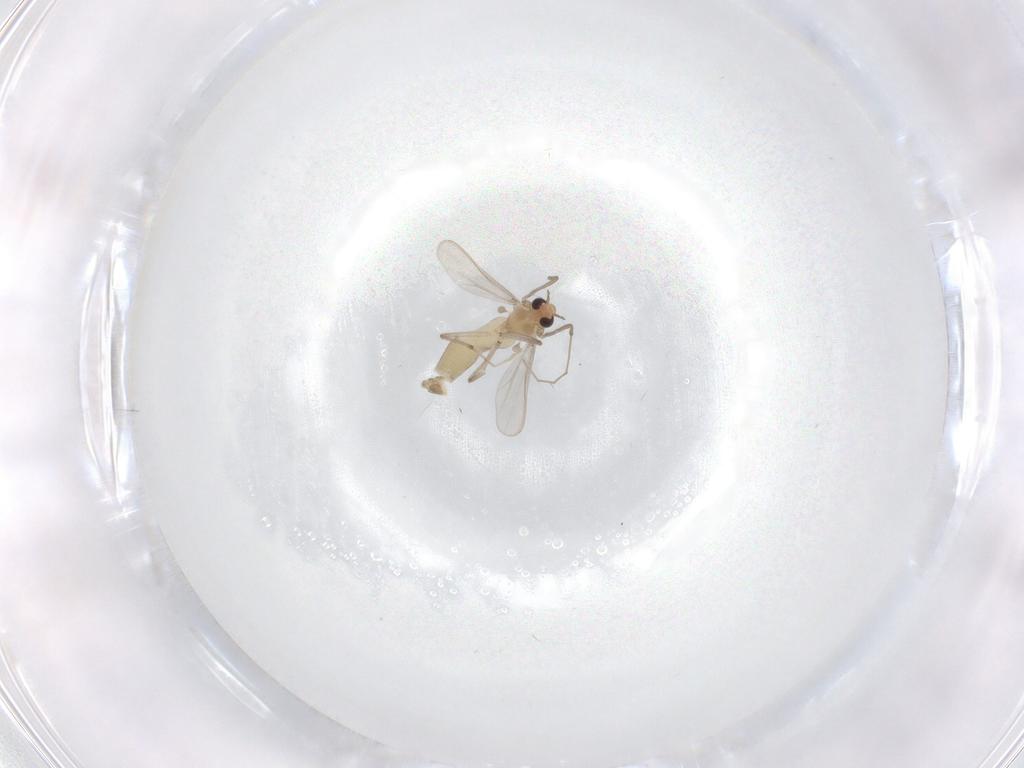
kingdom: Animalia
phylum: Arthropoda
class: Insecta
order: Diptera
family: Chironomidae
